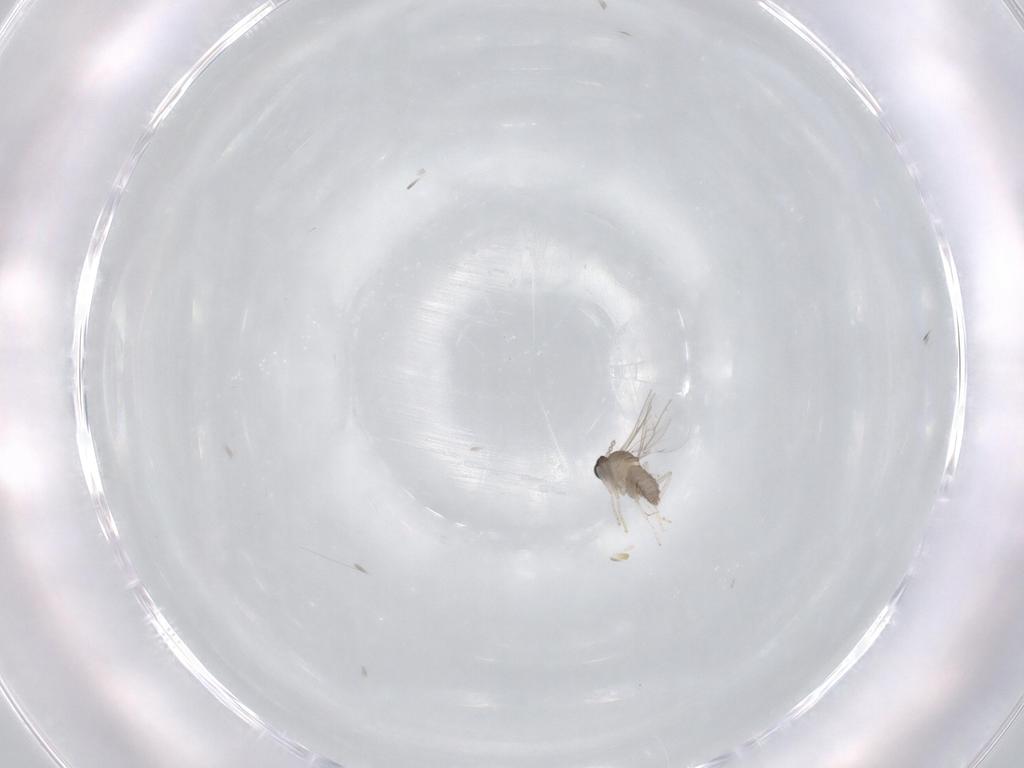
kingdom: Animalia
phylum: Arthropoda
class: Insecta
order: Diptera
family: Cecidomyiidae
